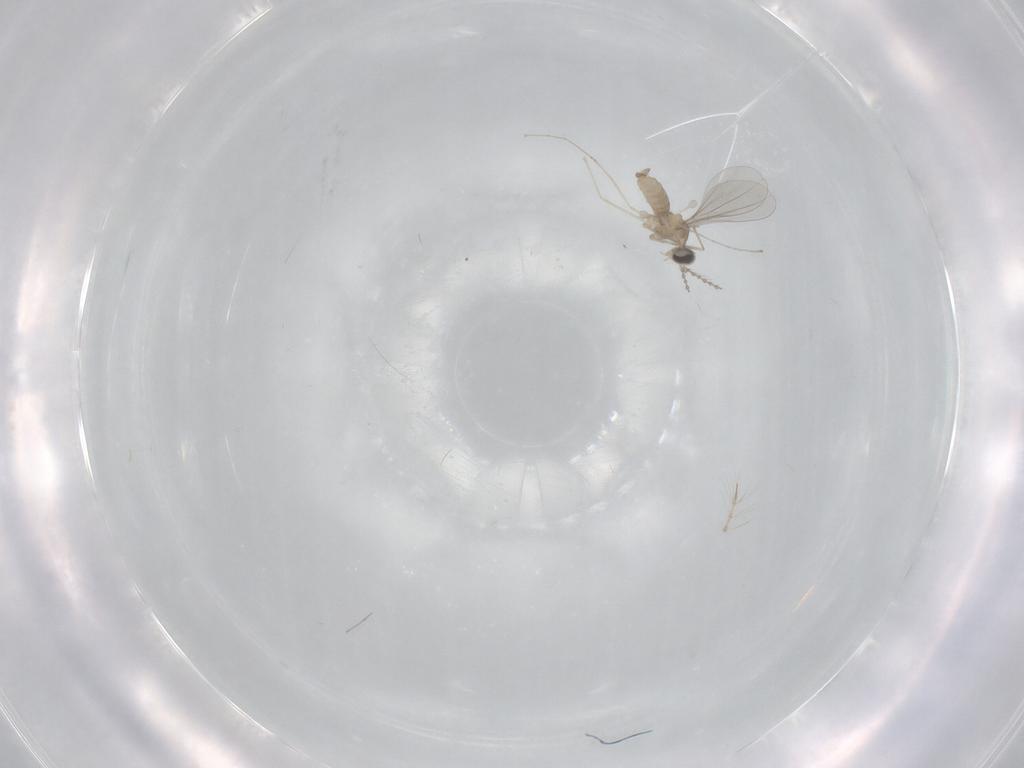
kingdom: Animalia
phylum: Arthropoda
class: Insecta
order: Diptera
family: Cecidomyiidae
